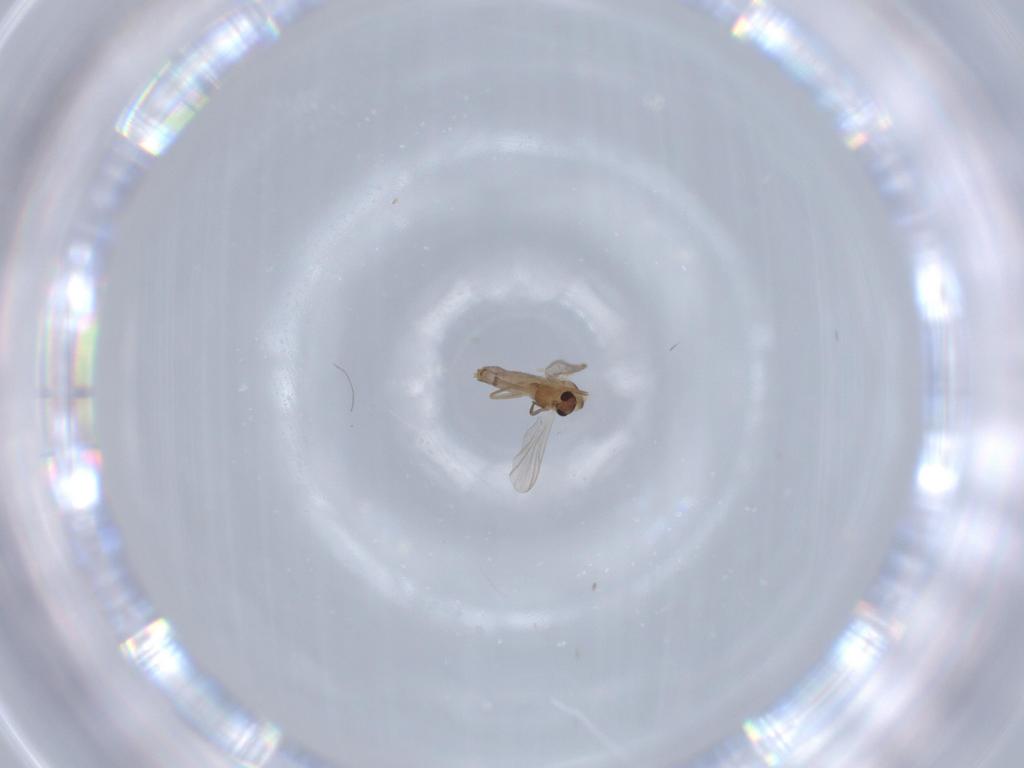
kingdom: Animalia
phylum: Arthropoda
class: Insecta
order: Diptera
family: Chironomidae
